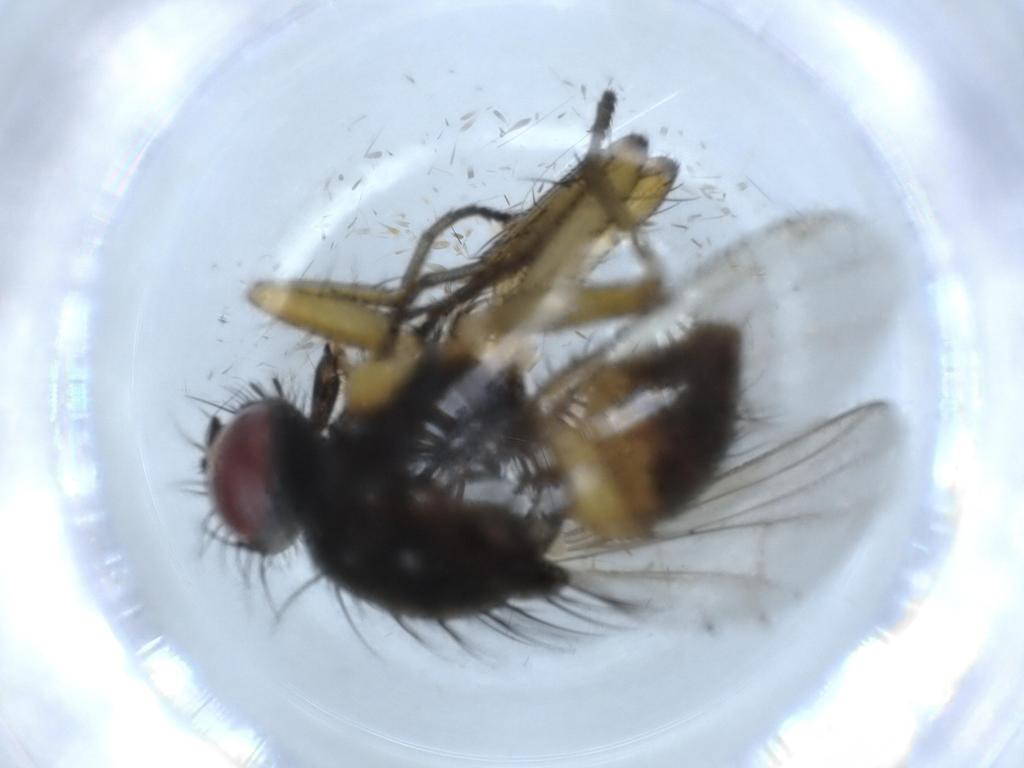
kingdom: Animalia
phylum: Arthropoda
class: Insecta
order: Diptera
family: Muscidae
